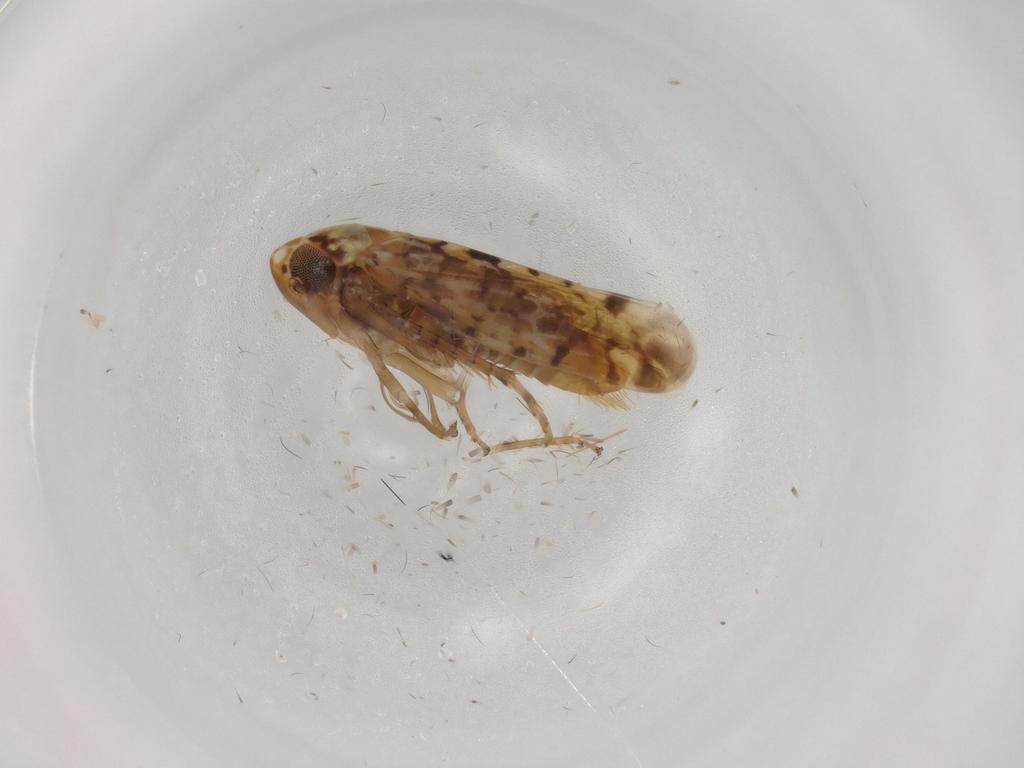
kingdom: Animalia
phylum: Arthropoda
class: Insecta
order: Hemiptera
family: Cicadellidae
